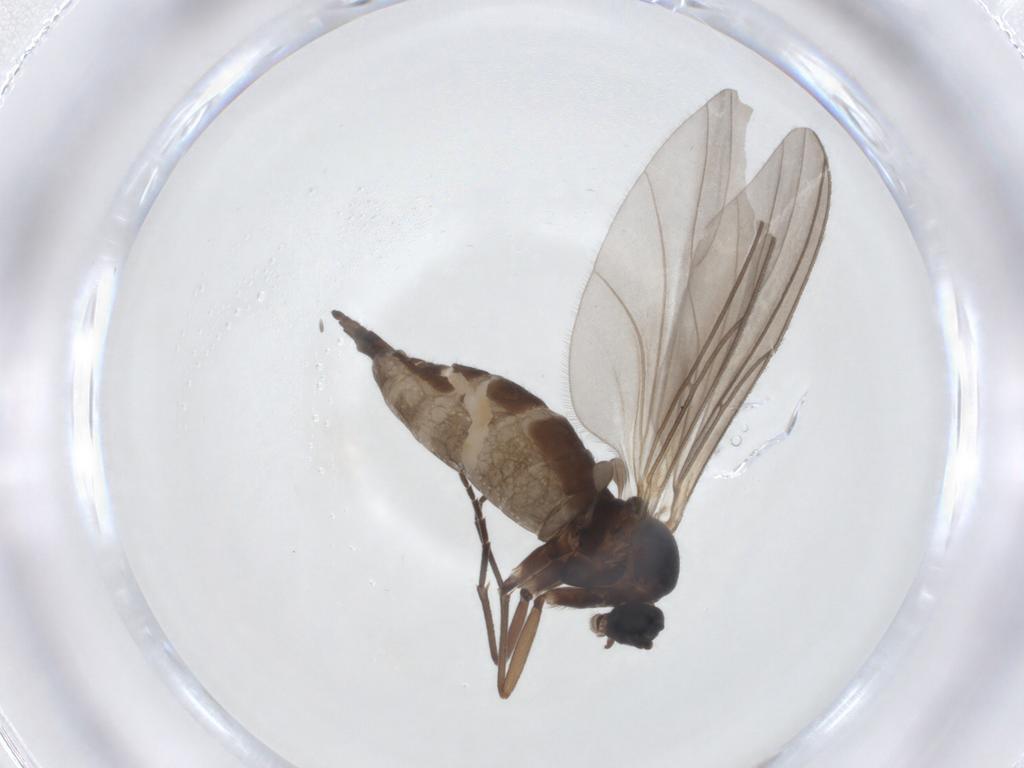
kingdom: Animalia
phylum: Arthropoda
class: Insecta
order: Diptera
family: Sciaridae
